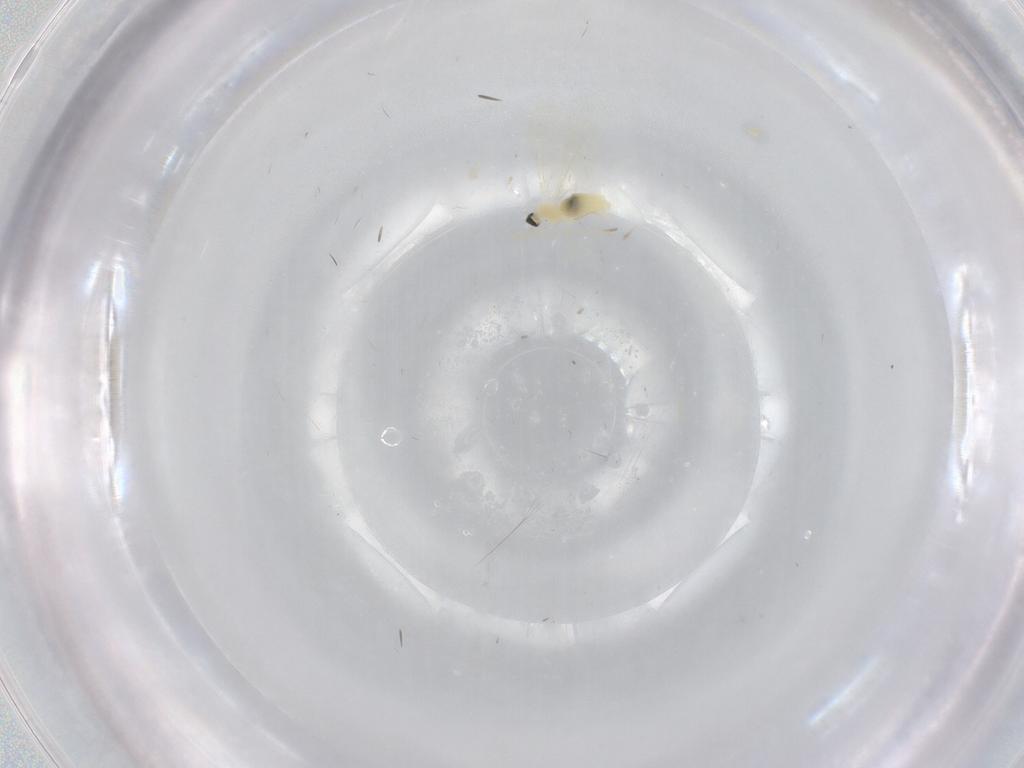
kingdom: Animalia
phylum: Arthropoda
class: Insecta
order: Diptera
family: Cecidomyiidae
